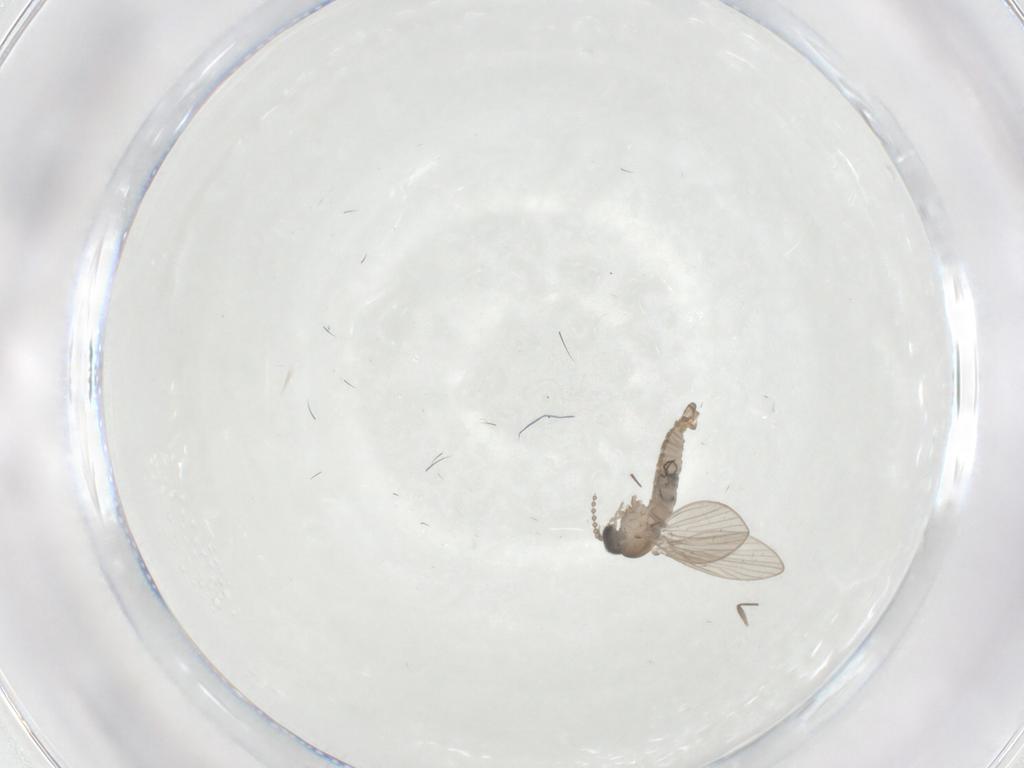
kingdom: Animalia
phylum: Arthropoda
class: Insecta
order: Diptera
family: Psychodidae
